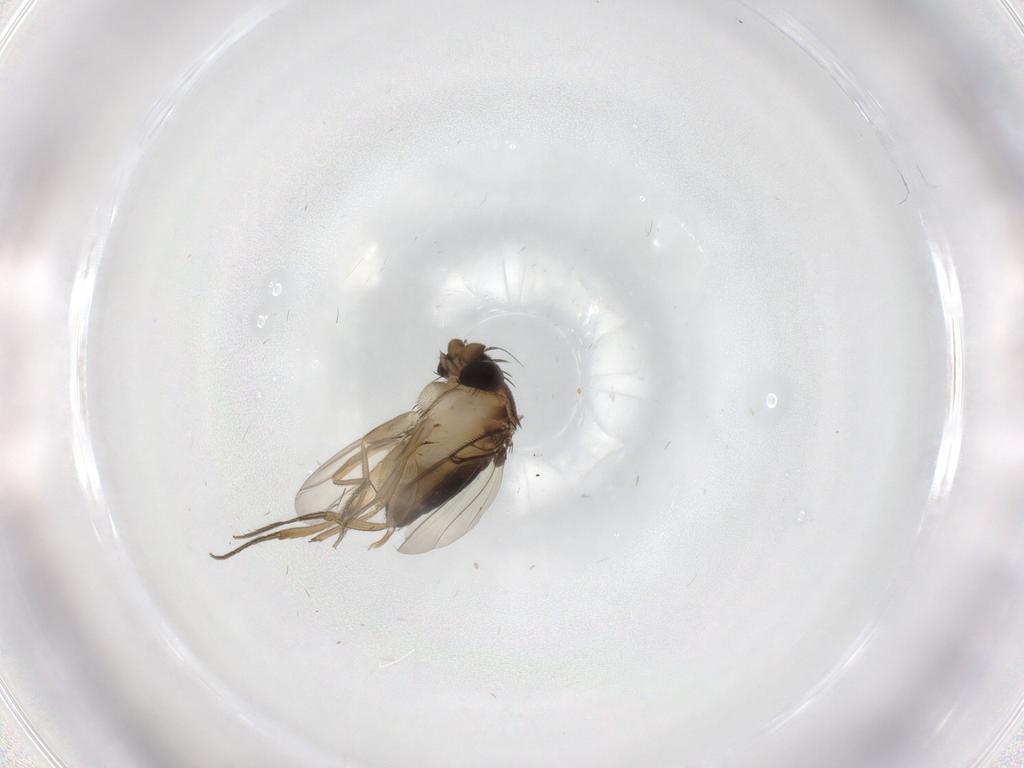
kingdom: Animalia
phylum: Arthropoda
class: Insecta
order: Diptera
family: Phoridae
